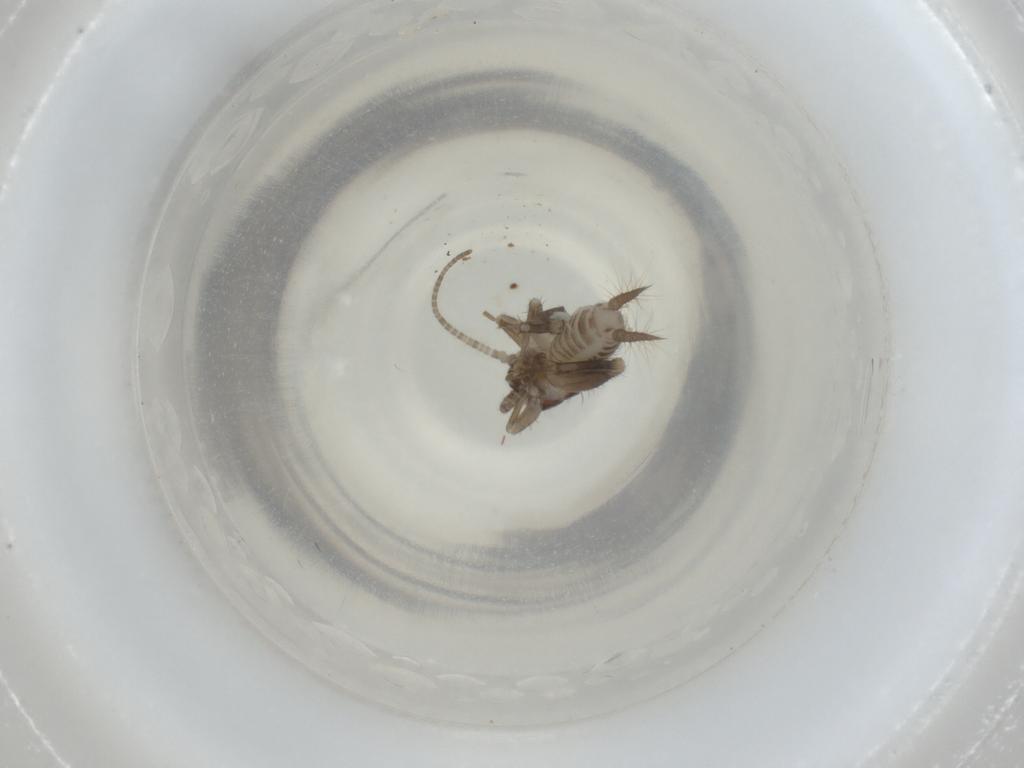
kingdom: Animalia
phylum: Arthropoda
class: Insecta
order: Orthoptera
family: Gryllidae
